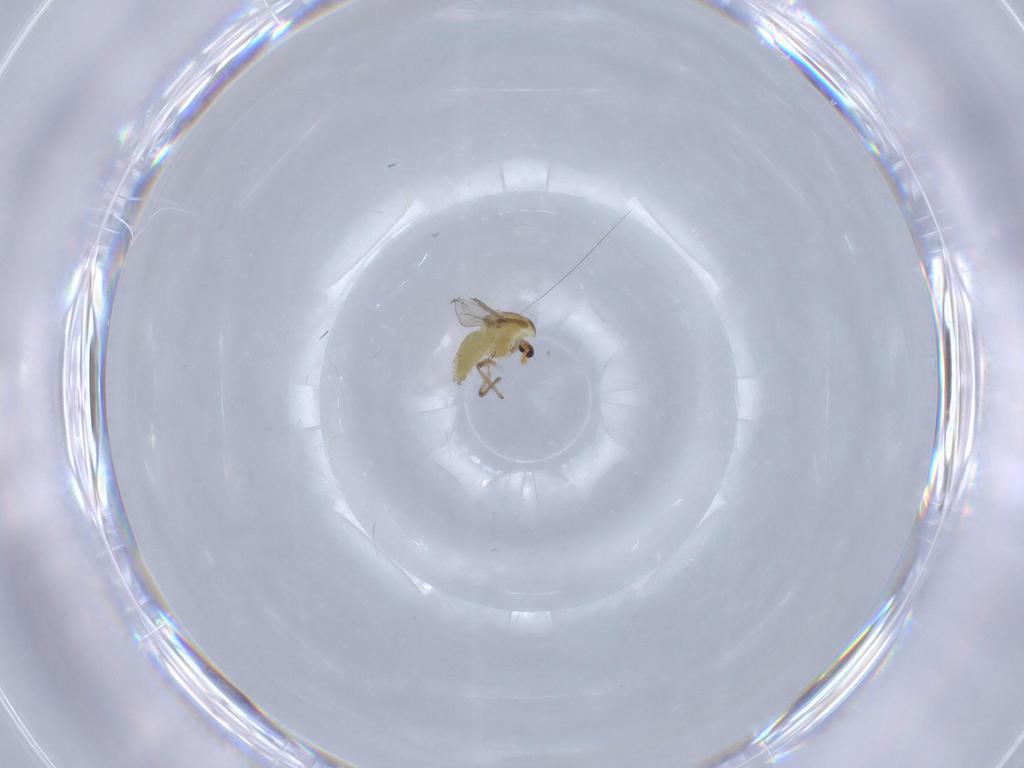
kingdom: Animalia
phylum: Arthropoda
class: Insecta
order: Diptera
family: Chironomidae
